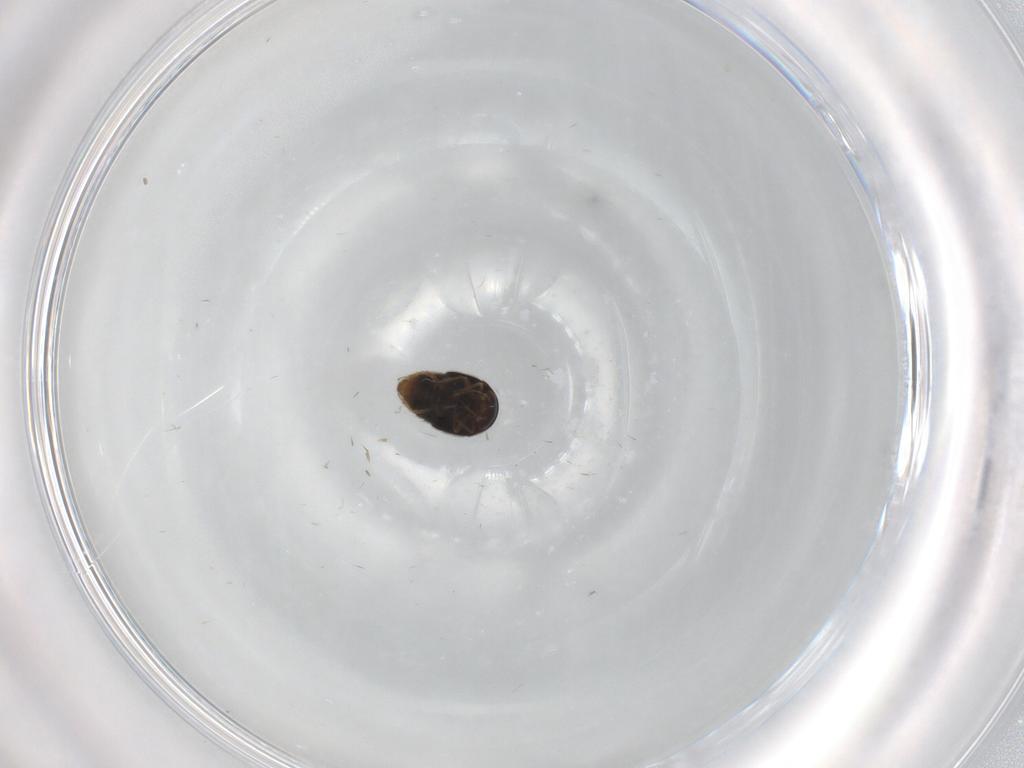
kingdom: Animalia
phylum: Arthropoda
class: Insecta
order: Coleoptera
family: Staphylinidae
